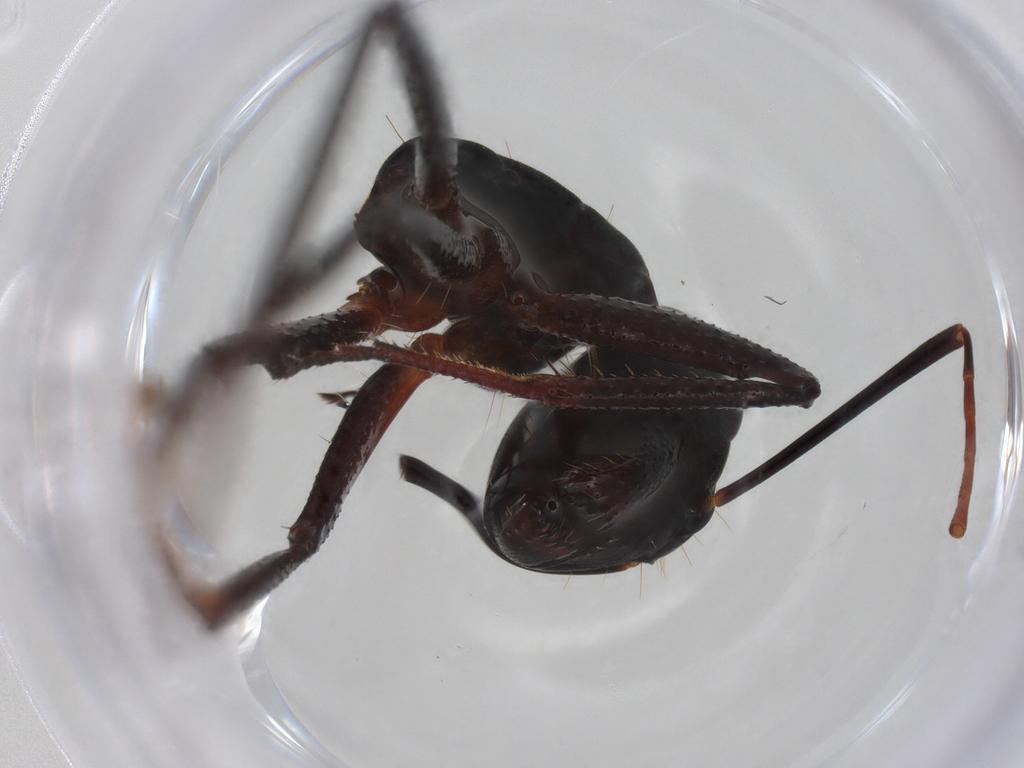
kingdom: Animalia
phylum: Arthropoda
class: Insecta
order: Hymenoptera
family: Formicidae
